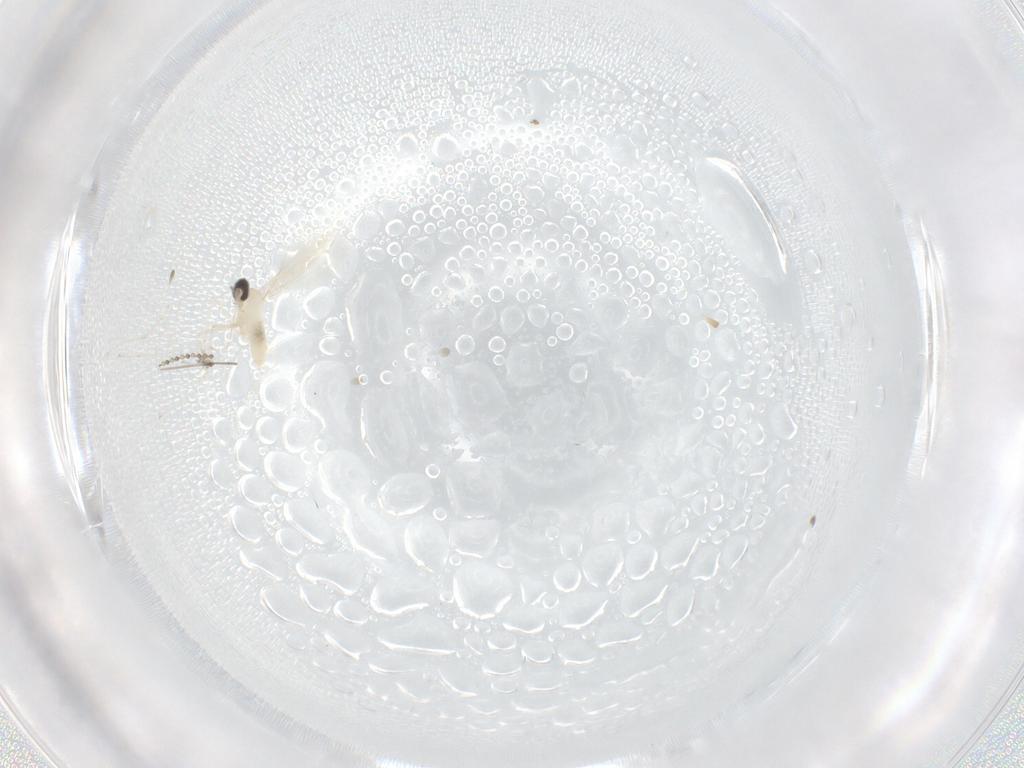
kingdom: Animalia
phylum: Arthropoda
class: Insecta
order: Diptera
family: Cecidomyiidae
